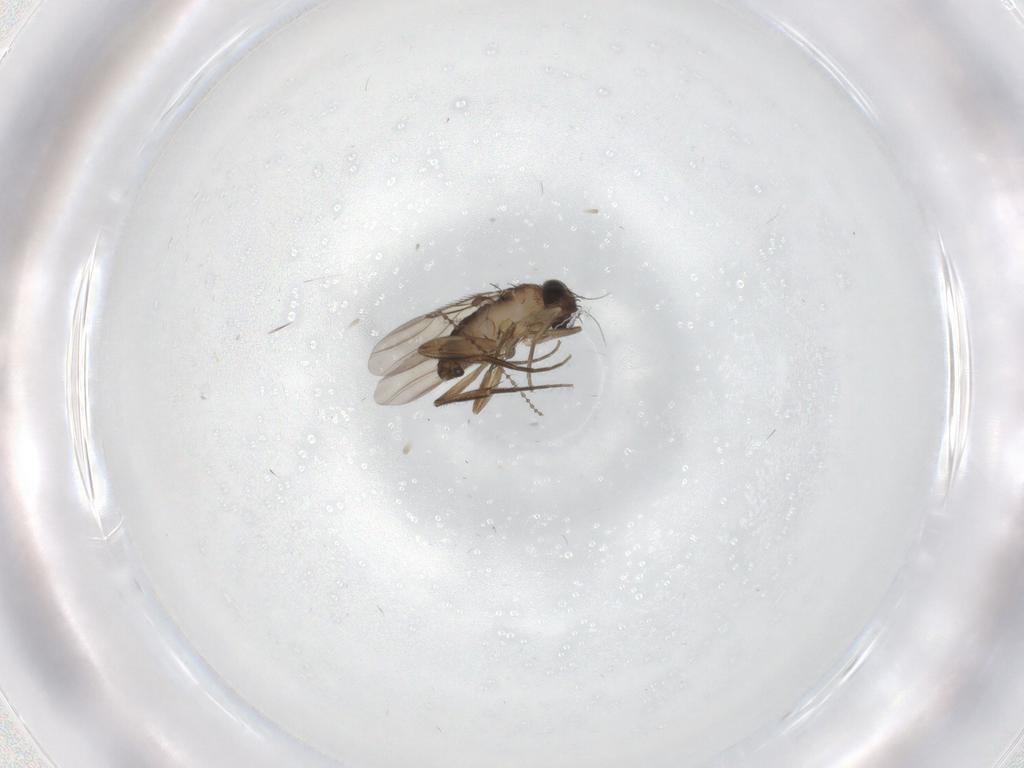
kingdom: Animalia
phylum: Arthropoda
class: Insecta
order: Diptera
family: Phoridae
